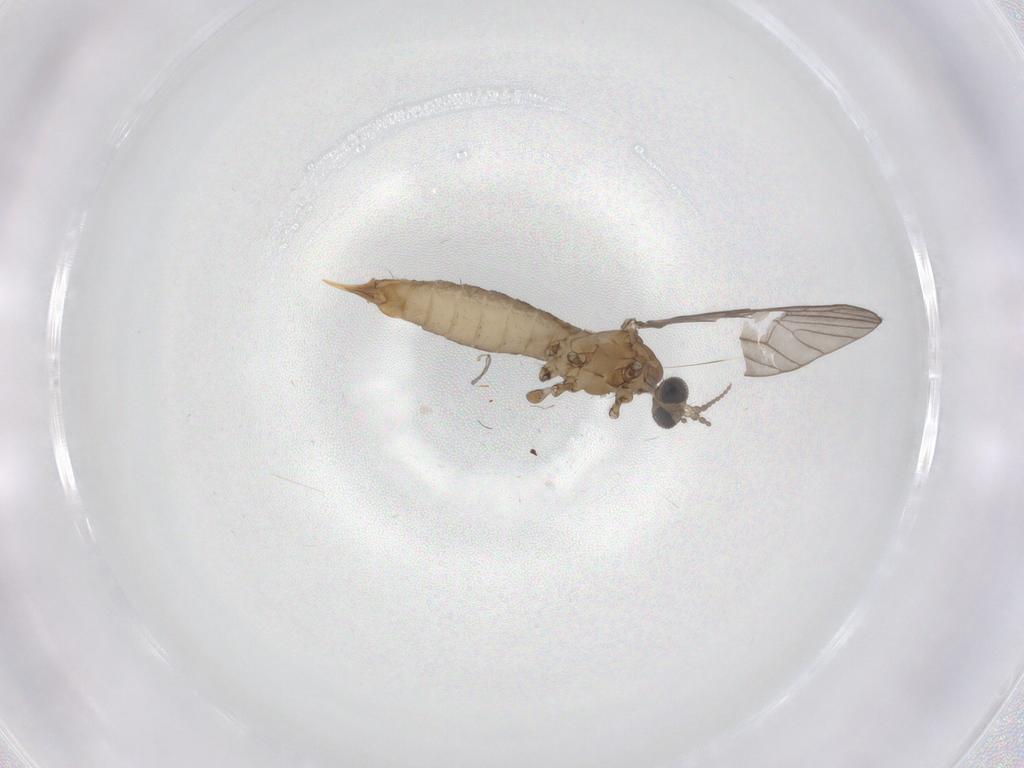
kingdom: Animalia
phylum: Arthropoda
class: Insecta
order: Diptera
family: Limoniidae
